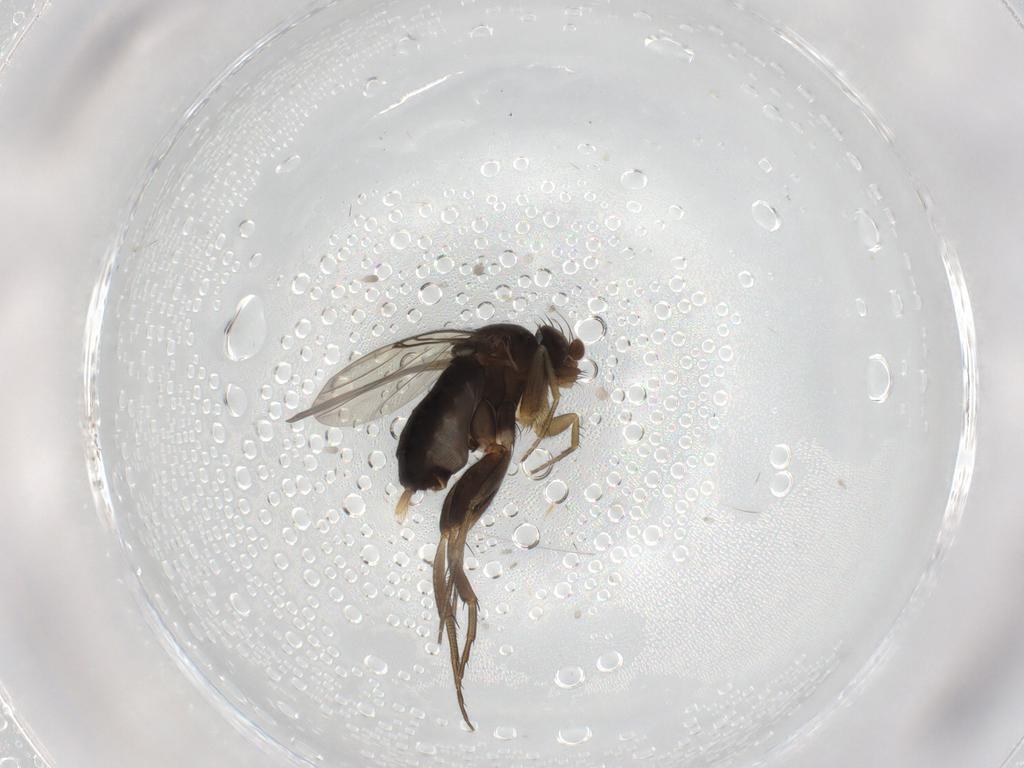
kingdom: Animalia
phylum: Arthropoda
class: Insecta
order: Diptera
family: Phoridae
